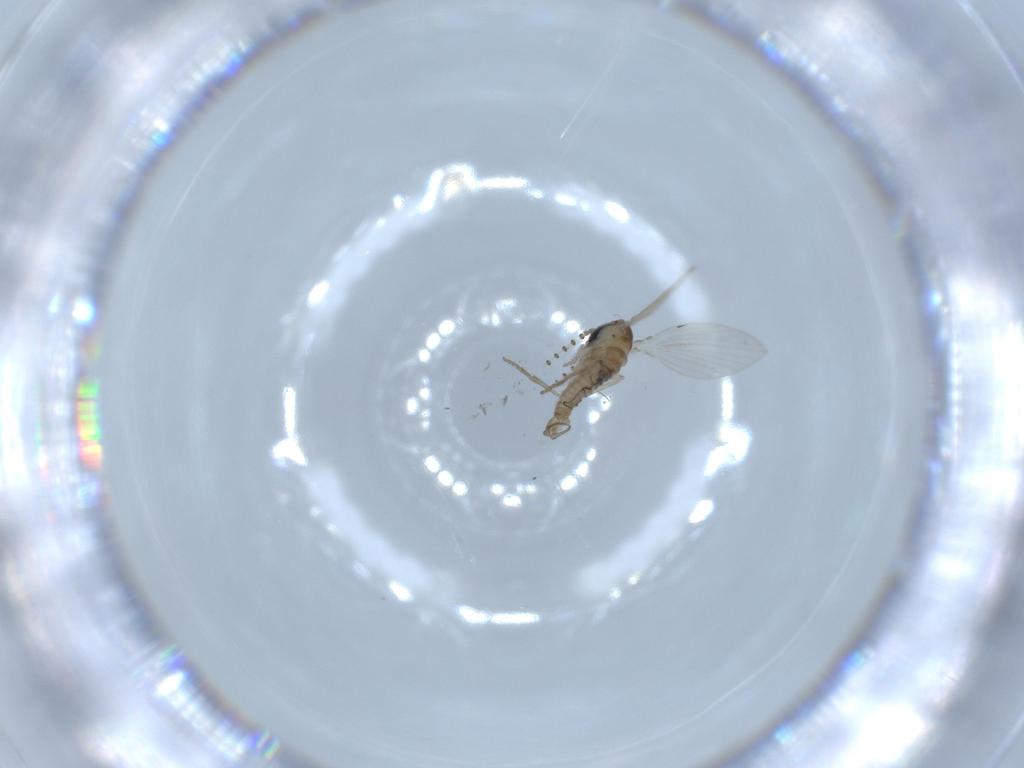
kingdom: Animalia
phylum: Arthropoda
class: Insecta
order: Diptera
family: Psychodidae
